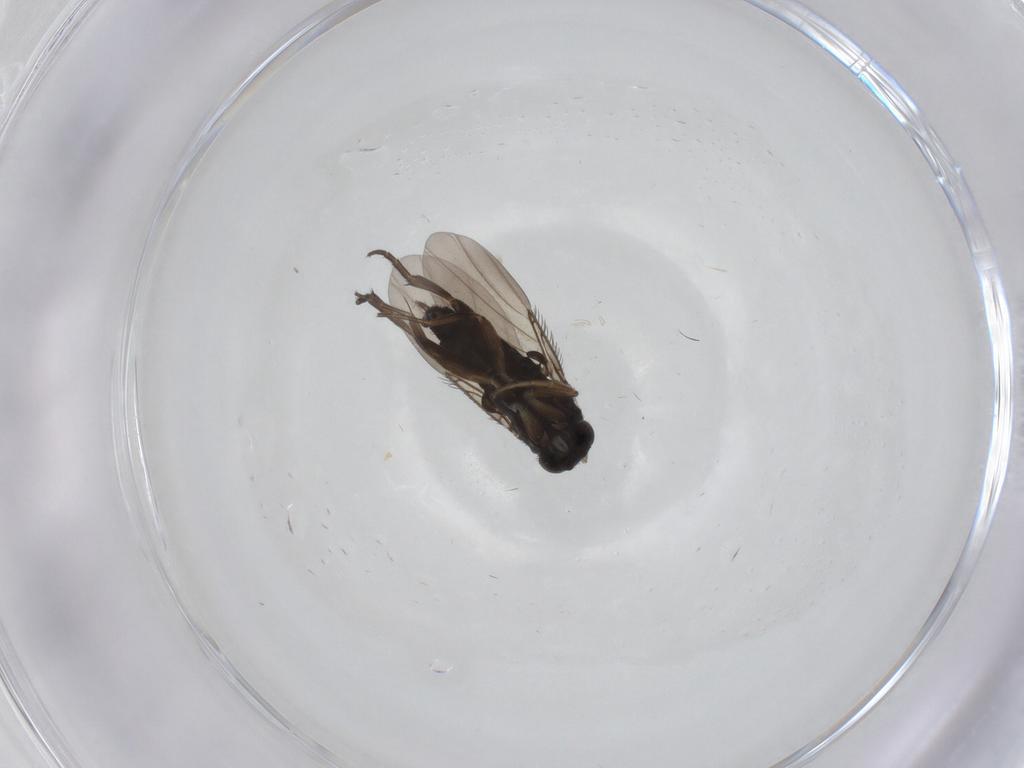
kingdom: Animalia
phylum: Arthropoda
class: Insecta
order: Diptera
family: Phoridae
